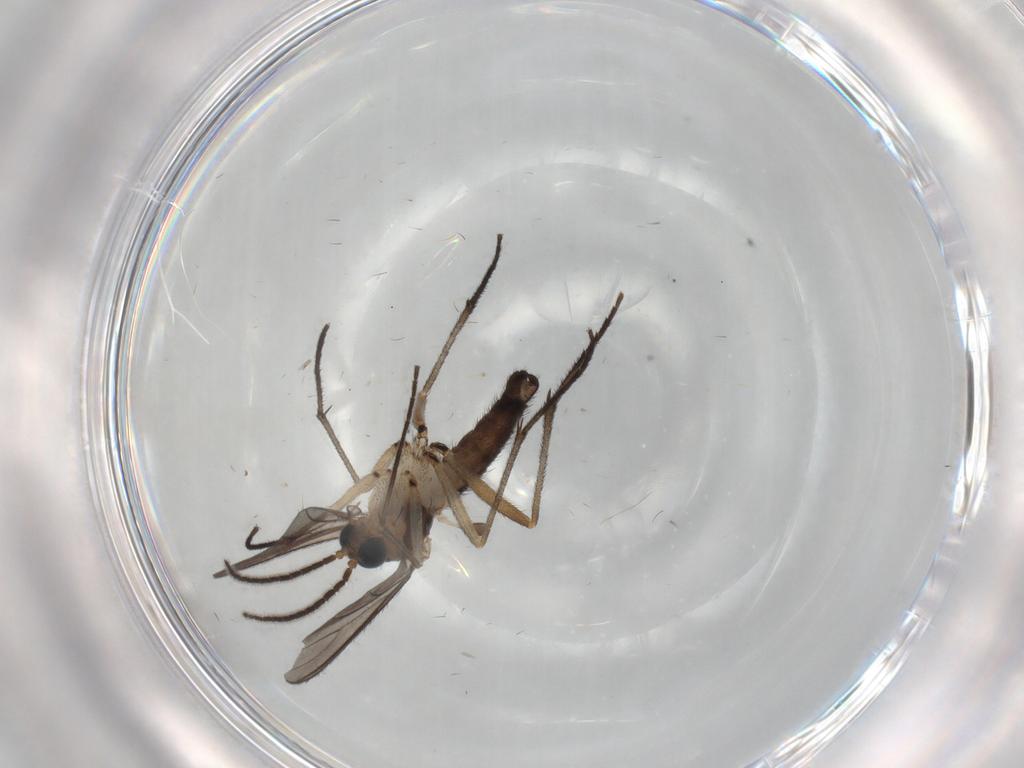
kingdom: Animalia
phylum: Arthropoda
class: Insecta
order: Diptera
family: Sciaridae
